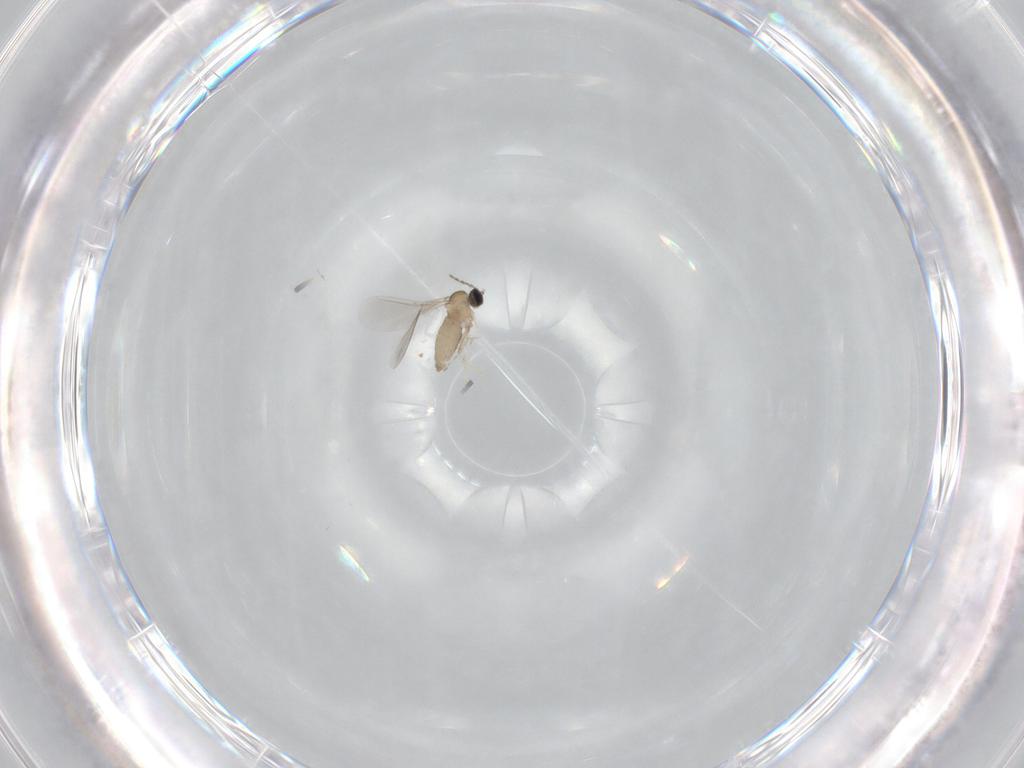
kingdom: Animalia
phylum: Arthropoda
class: Insecta
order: Diptera
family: Cecidomyiidae
